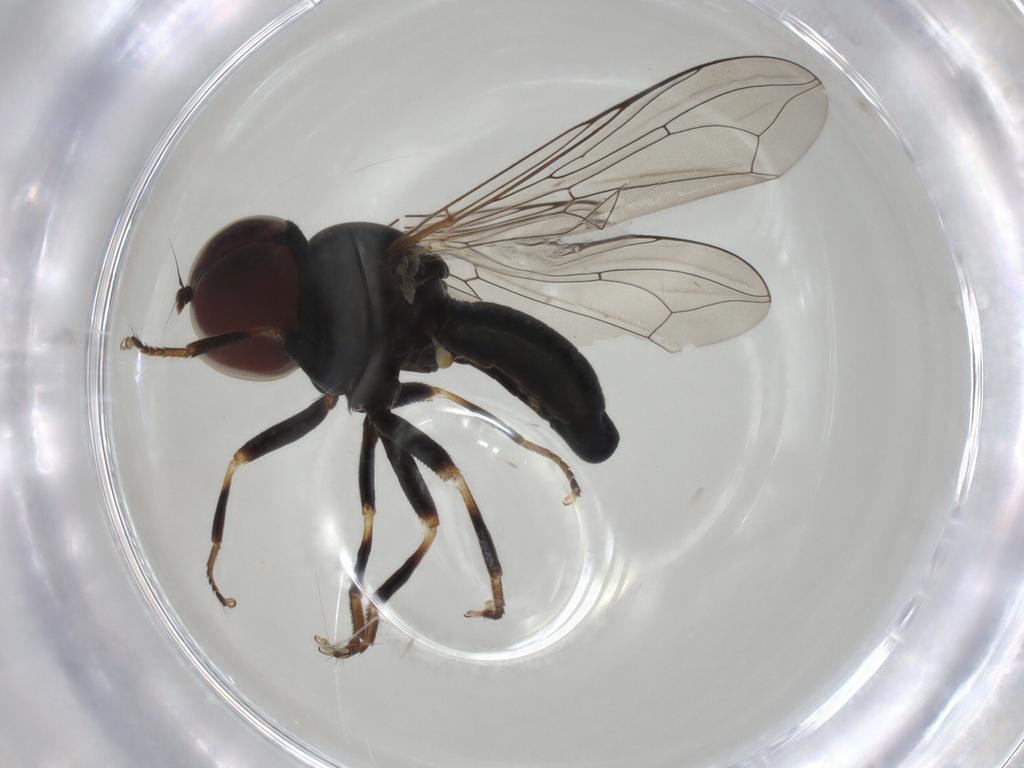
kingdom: Animalia
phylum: Arthropoda
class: Insecta
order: Diptera
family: Pipunculidae
